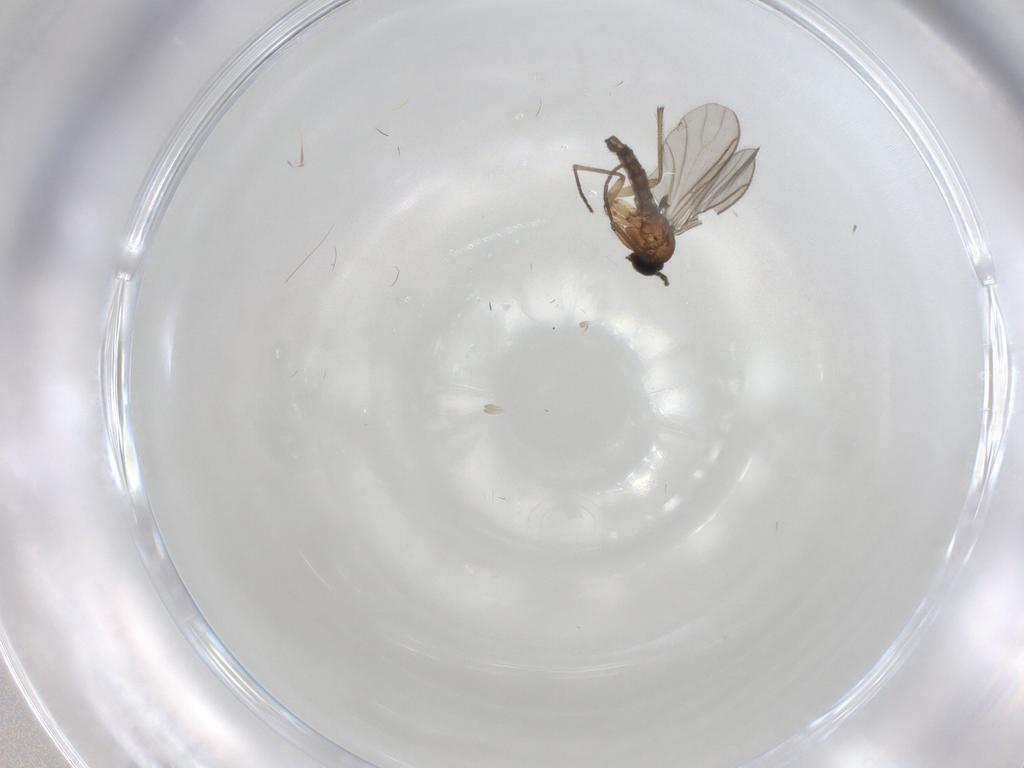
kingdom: Animalia
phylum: Arthropoda
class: Insecta
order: Diptera
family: Sciaridae
